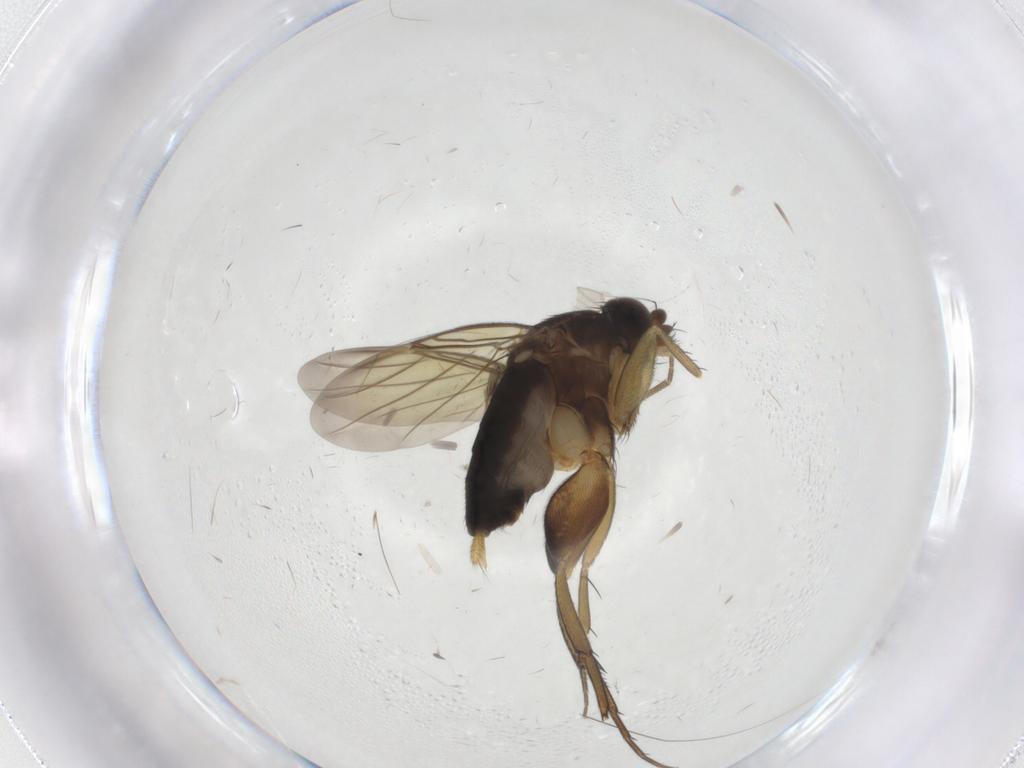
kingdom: Animalia
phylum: Arthropoda
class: Insecta
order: Diptera
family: Phoridae
